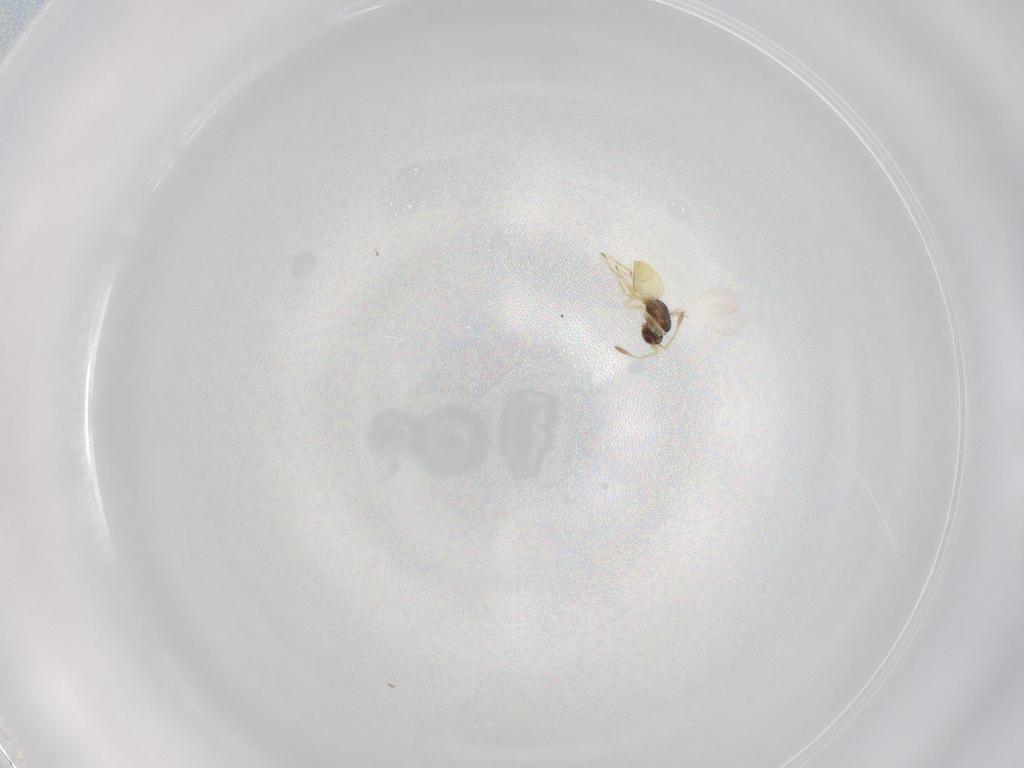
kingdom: Animalia
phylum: Arthropoda
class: Insecta
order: Hymenoptera
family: Mymaridae
